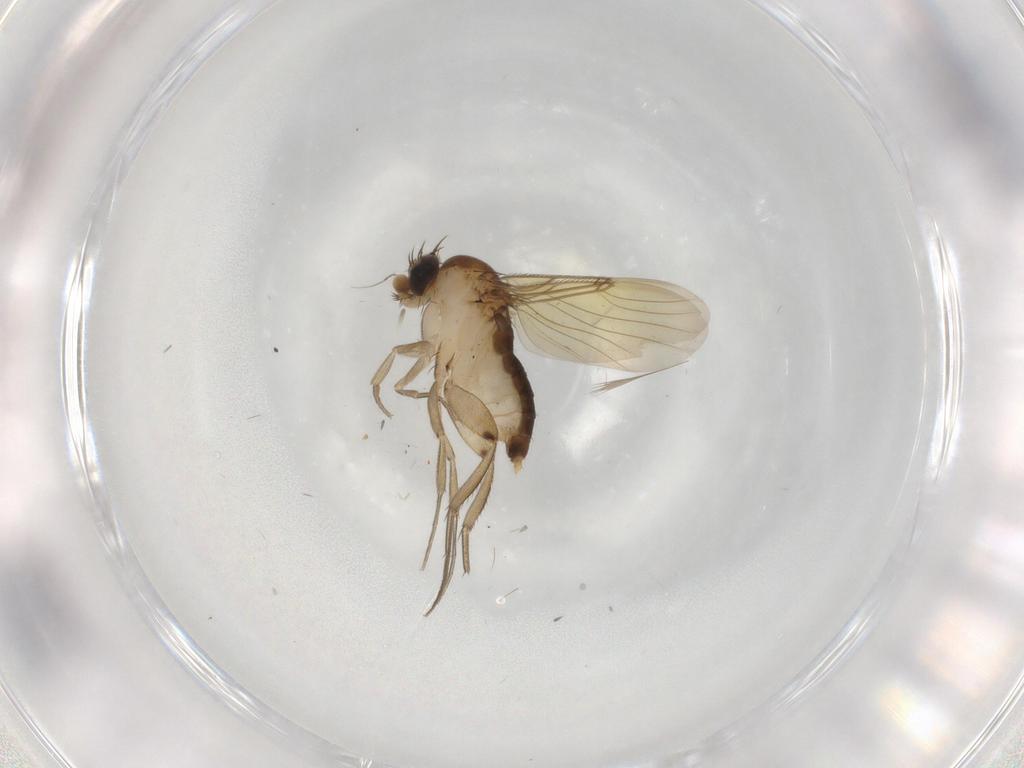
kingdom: Animalia
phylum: Arthropoda
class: Insecta
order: Diptera
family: Phoridae
